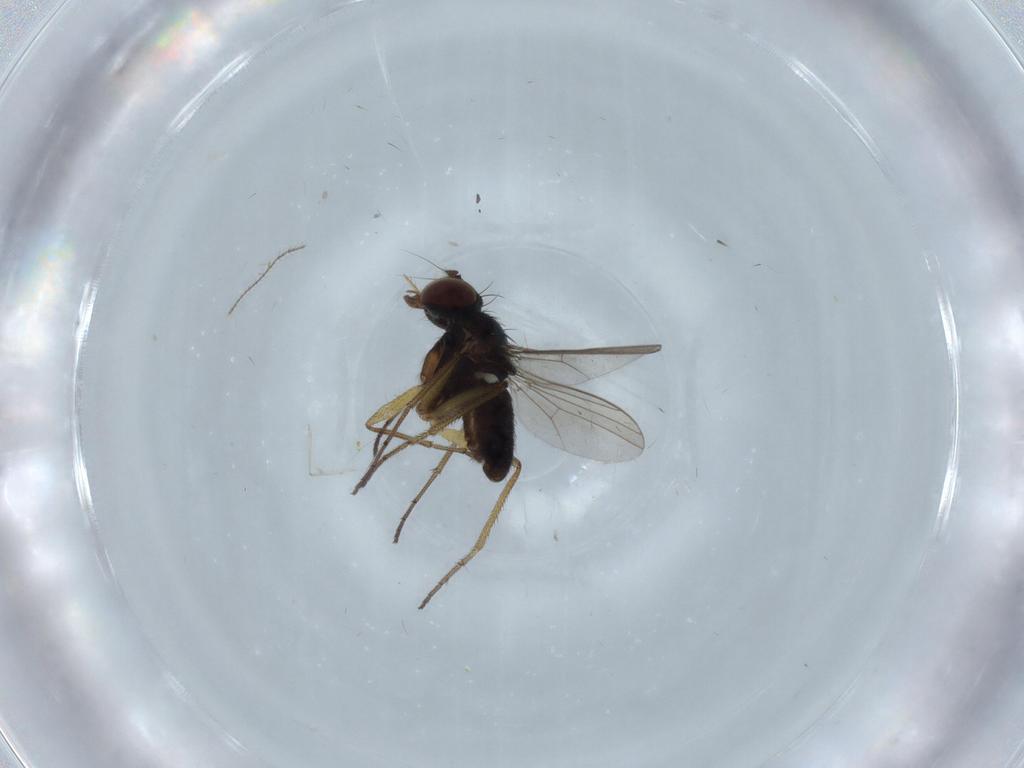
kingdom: Animalia
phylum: Arthropoda
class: Insecta
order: Diptera
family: Dolichopodidae
